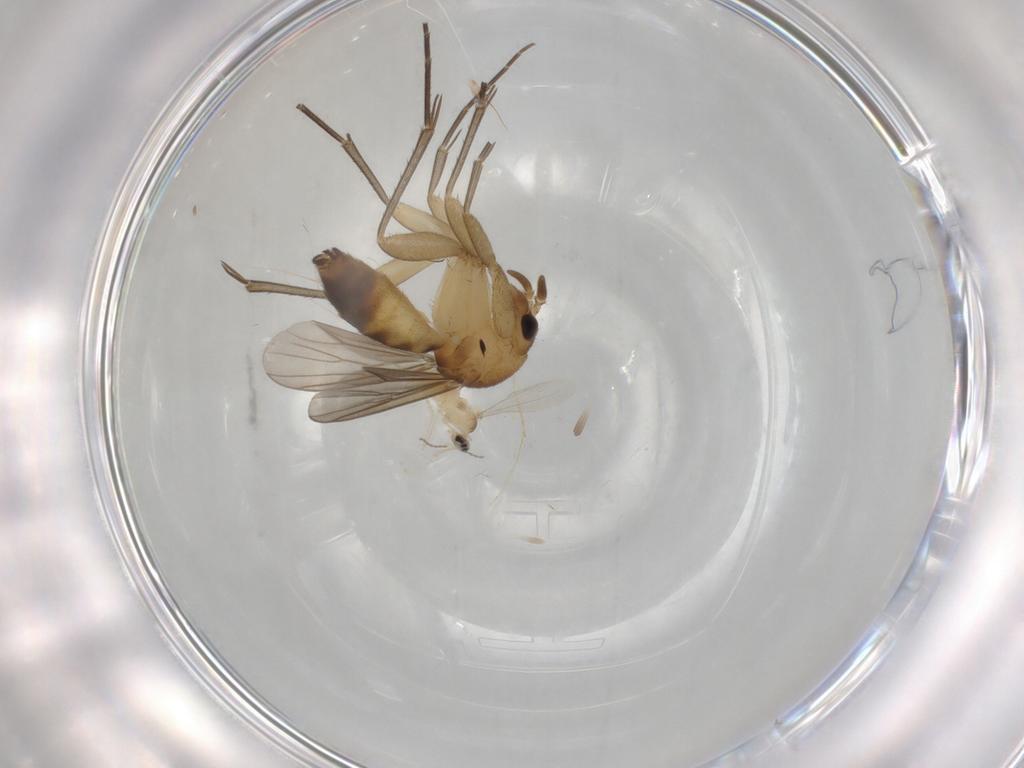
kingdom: Animalia
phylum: Arthropoda
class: Insecta
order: Diptera
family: Mycetophilidae
